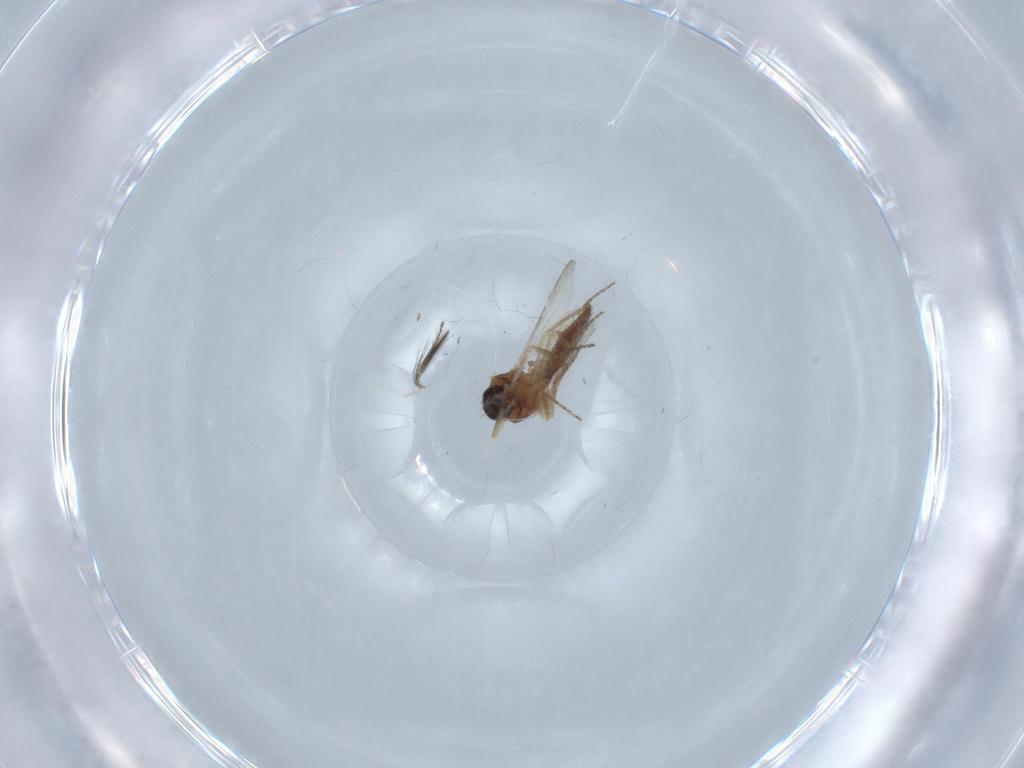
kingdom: Animalia
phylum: Arthropoda
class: Insecta
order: Diptera
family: Ceratopogonidae
